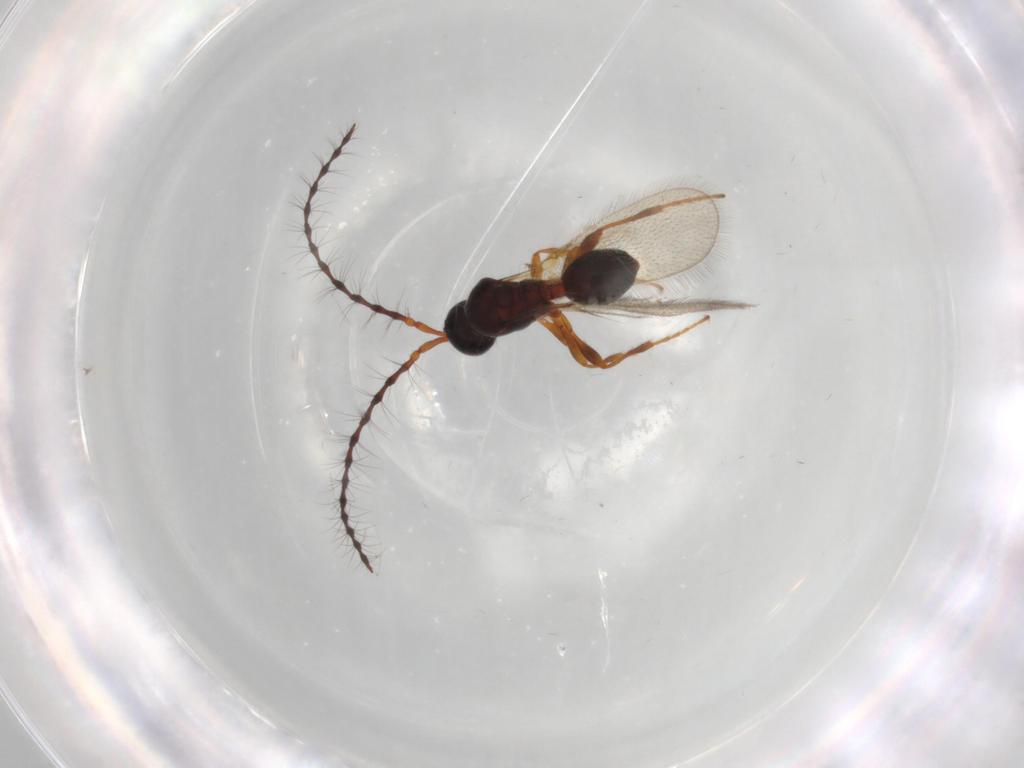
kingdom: Animalia
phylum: Arthropoda
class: Insecta
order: Hymenoptera
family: Diapriidae
